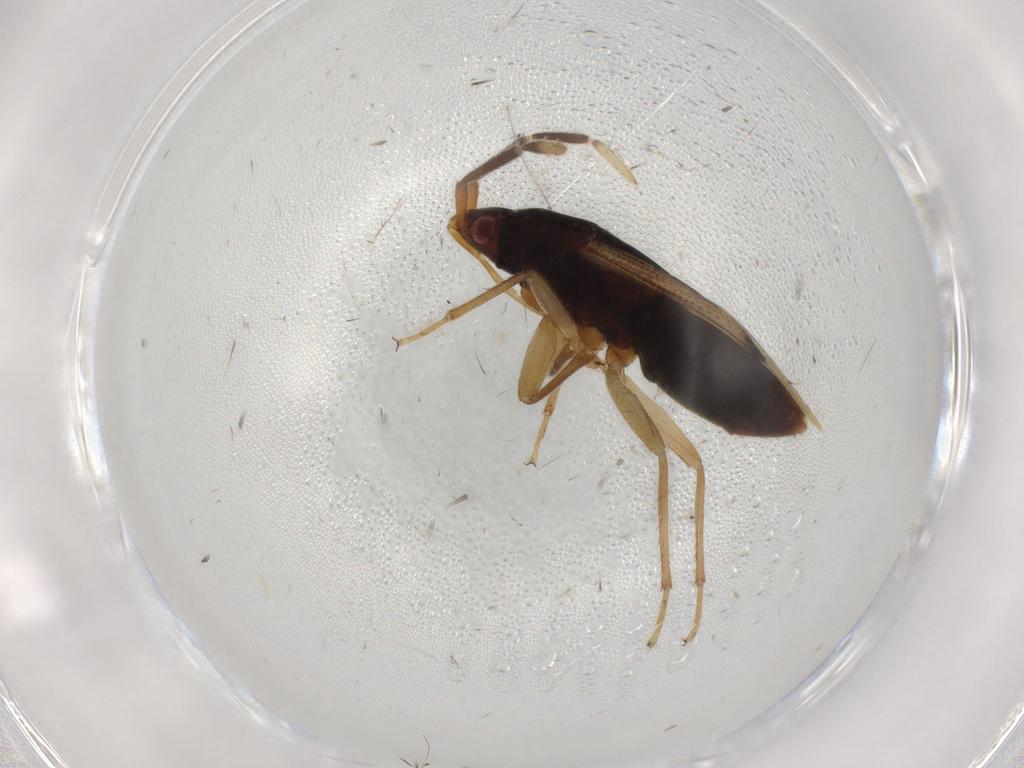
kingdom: Animalia
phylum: Arthropoda
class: Insecta
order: Hemiptera
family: Rhyparochromidae
